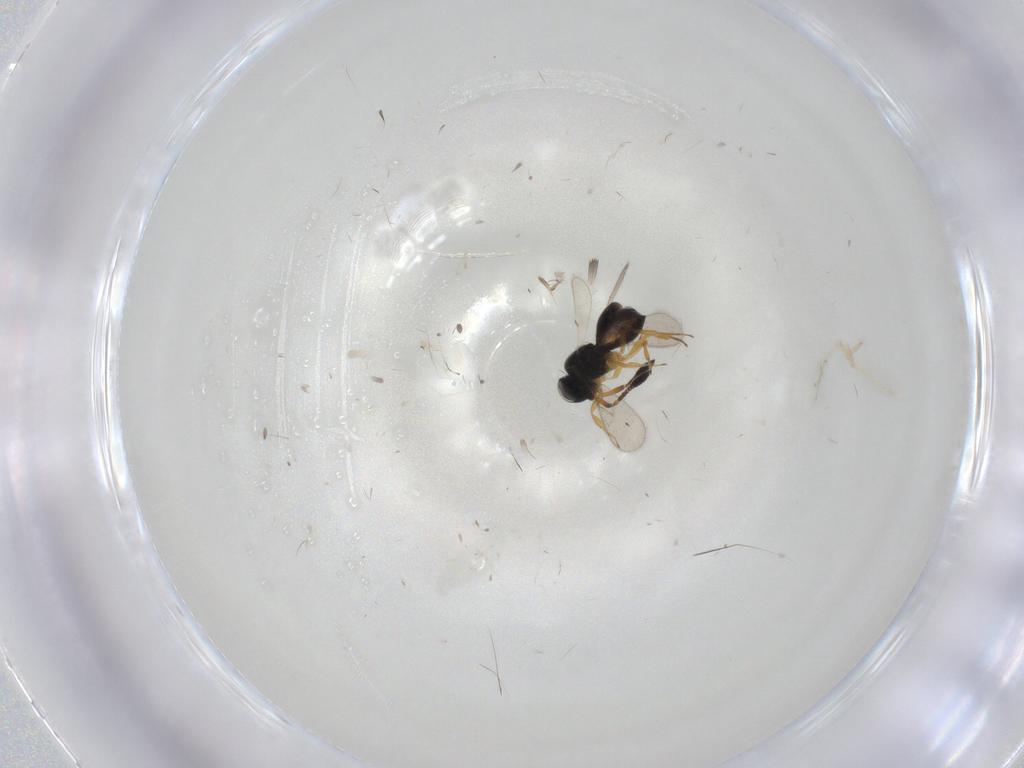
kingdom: Animalia
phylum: Arthropoda
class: Insecta
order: Hymenoptera
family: Scelionidae
